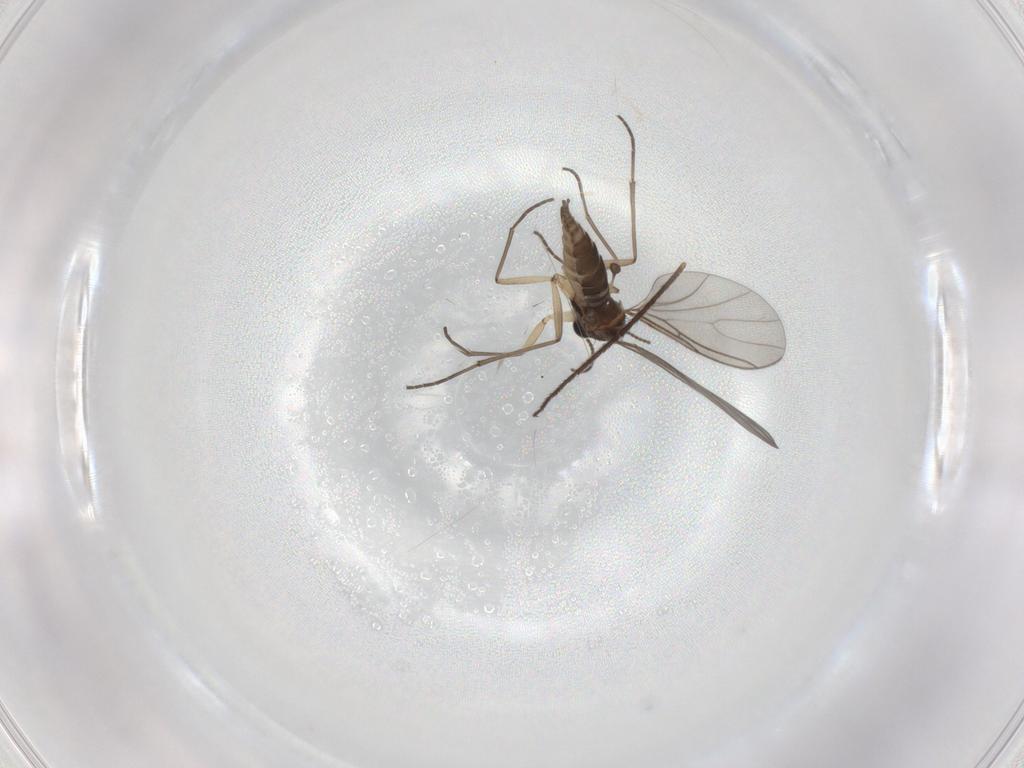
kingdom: Animalia
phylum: Arthropoda
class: Insecta
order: Diptera
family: Sciaridae
